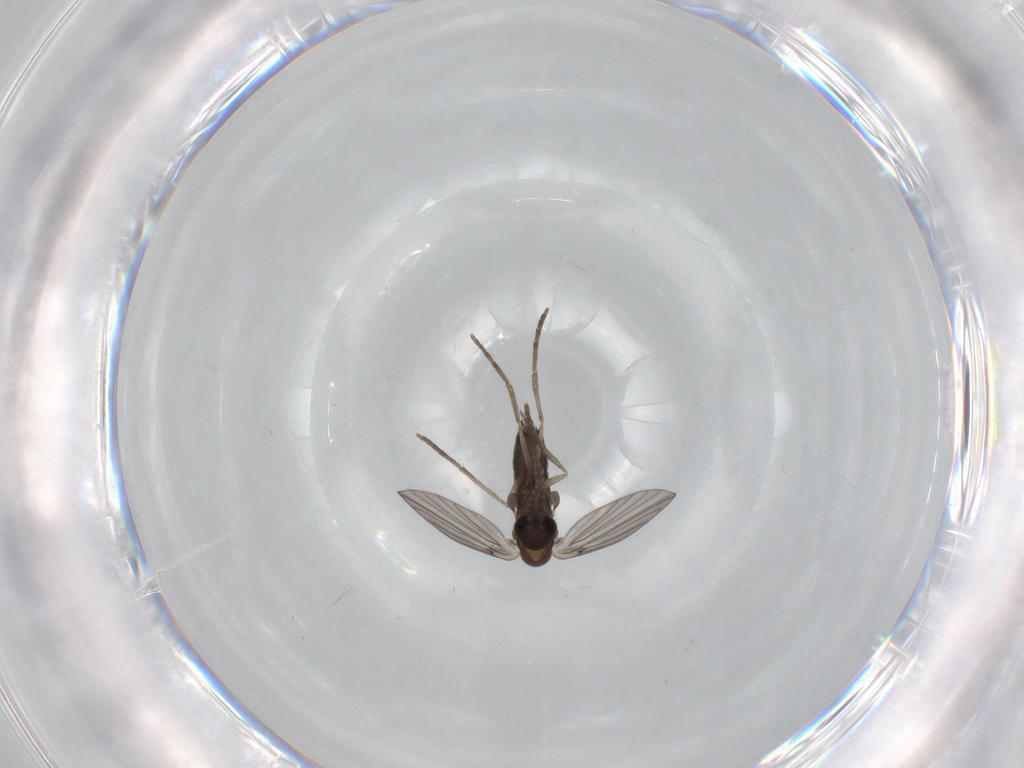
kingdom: Animalia
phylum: Arthropoda
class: Insecta
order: Diptera
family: Psychodidae
